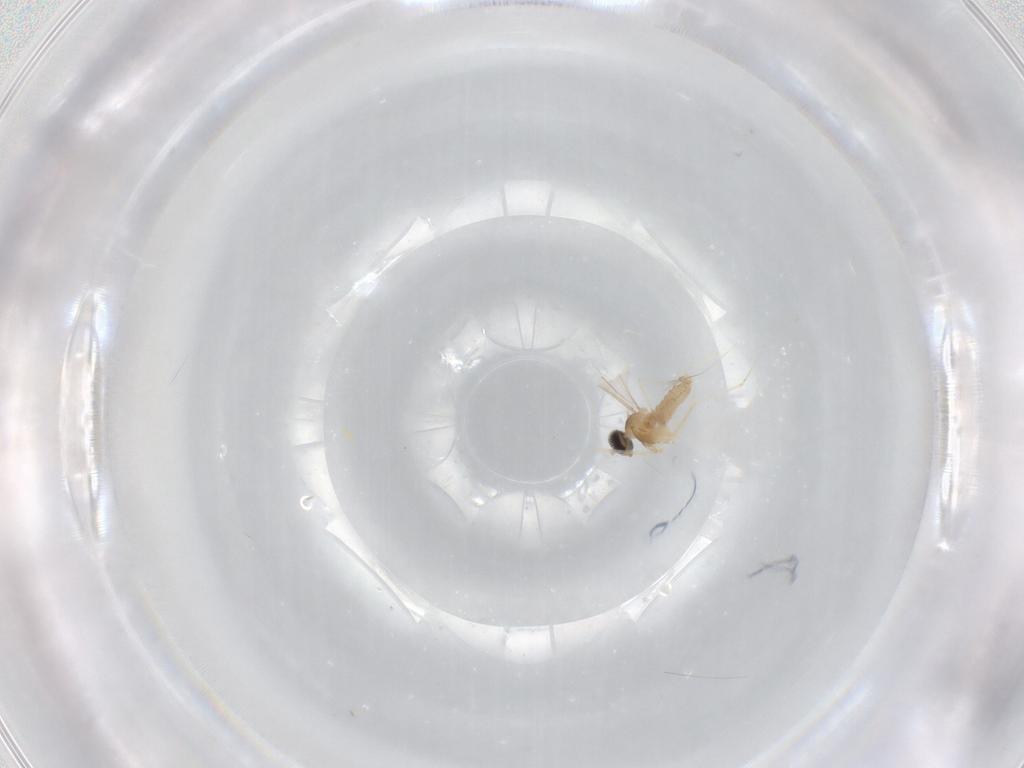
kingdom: Animalia
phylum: Arthropoda
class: Insecta
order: Diptera
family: Cecidomyiidae
